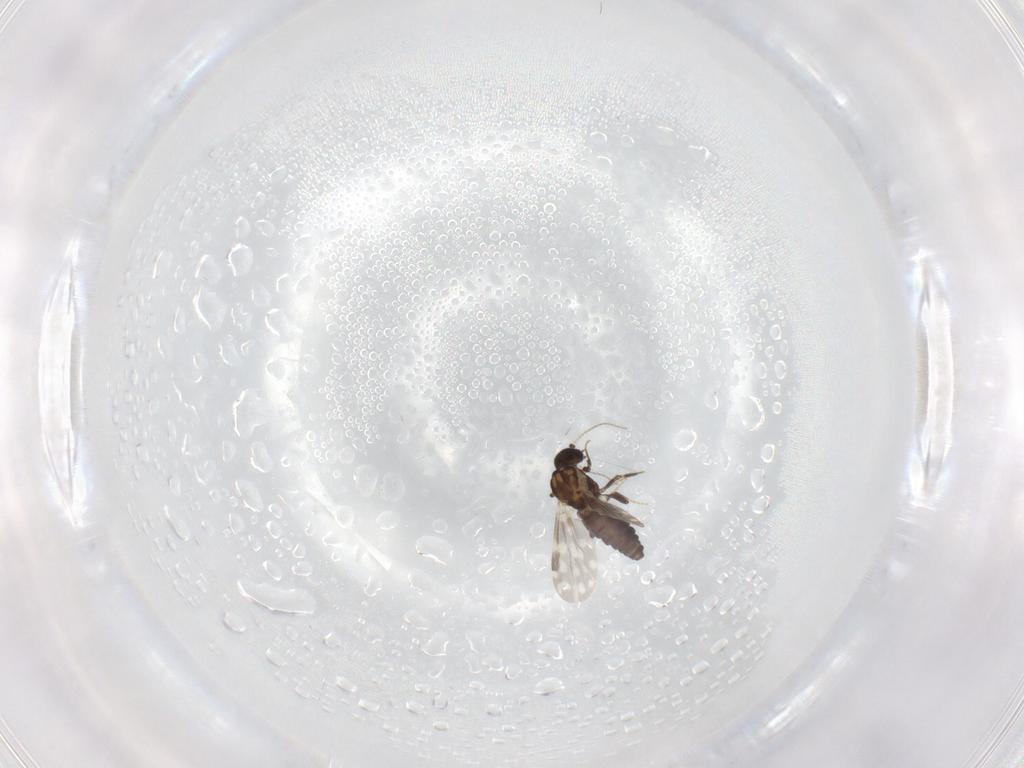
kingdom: Animalia
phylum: Arthropoda
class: Insecta
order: Diptera
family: Ceratopogonidae
